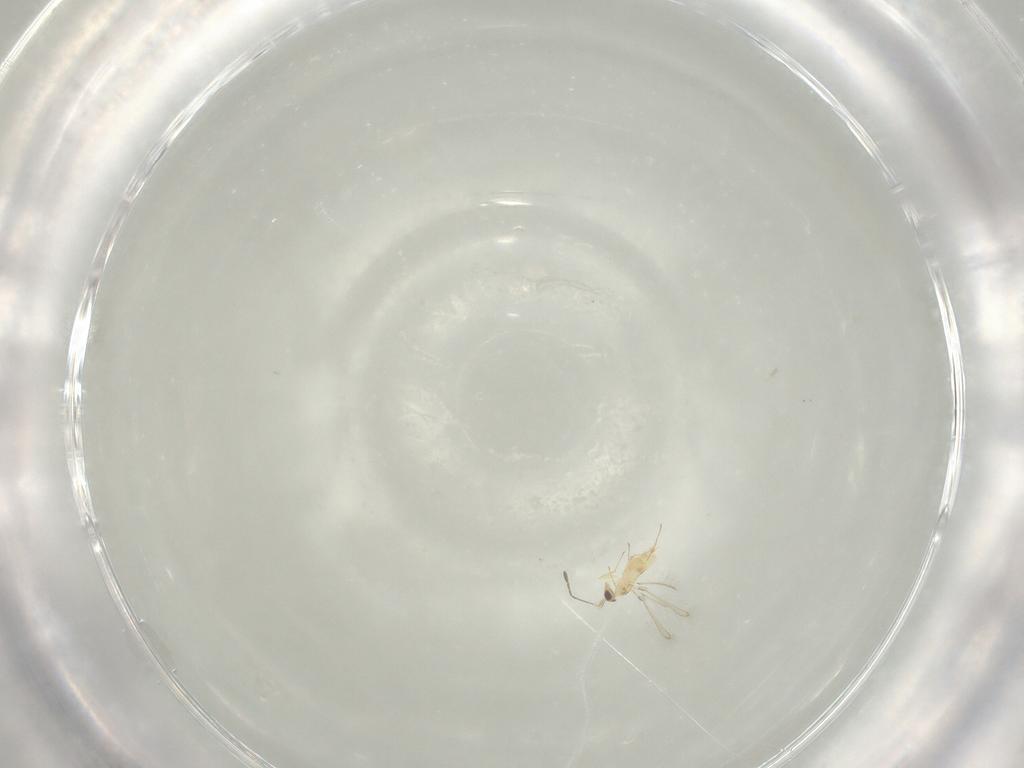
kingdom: Animalia
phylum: Arthropoda
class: Insecta
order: Hymenoptera
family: Mymaridae
